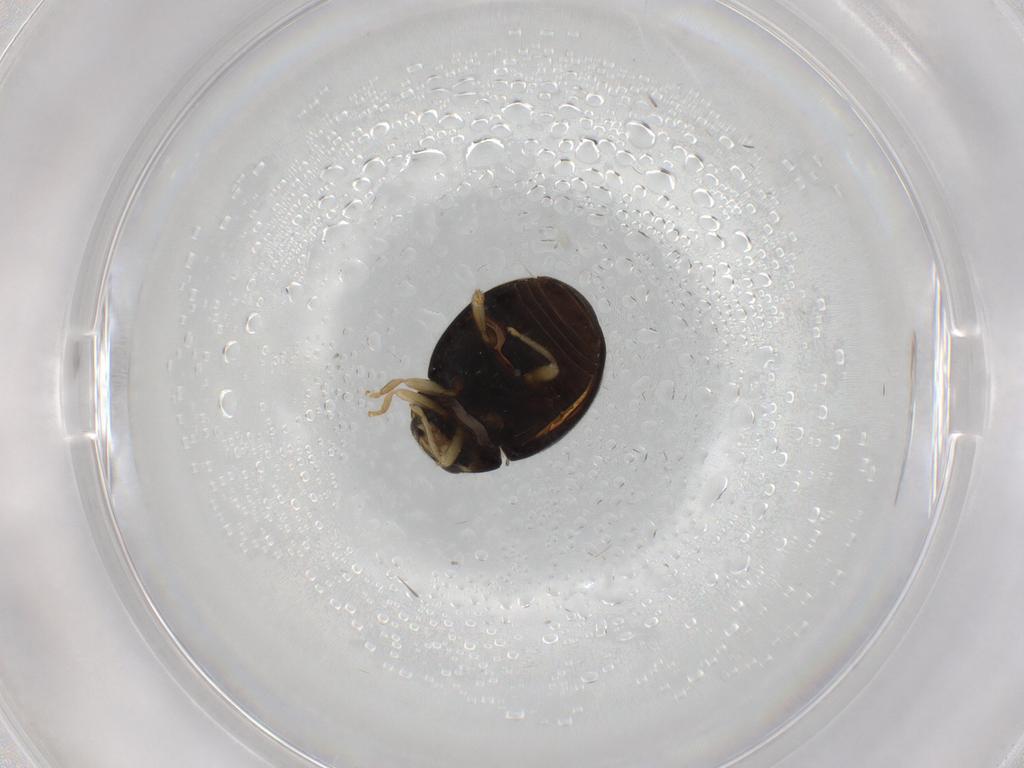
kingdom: Animalia
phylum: Arthropoda
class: Insecta
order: Coleoptera
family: Coccinellidae
